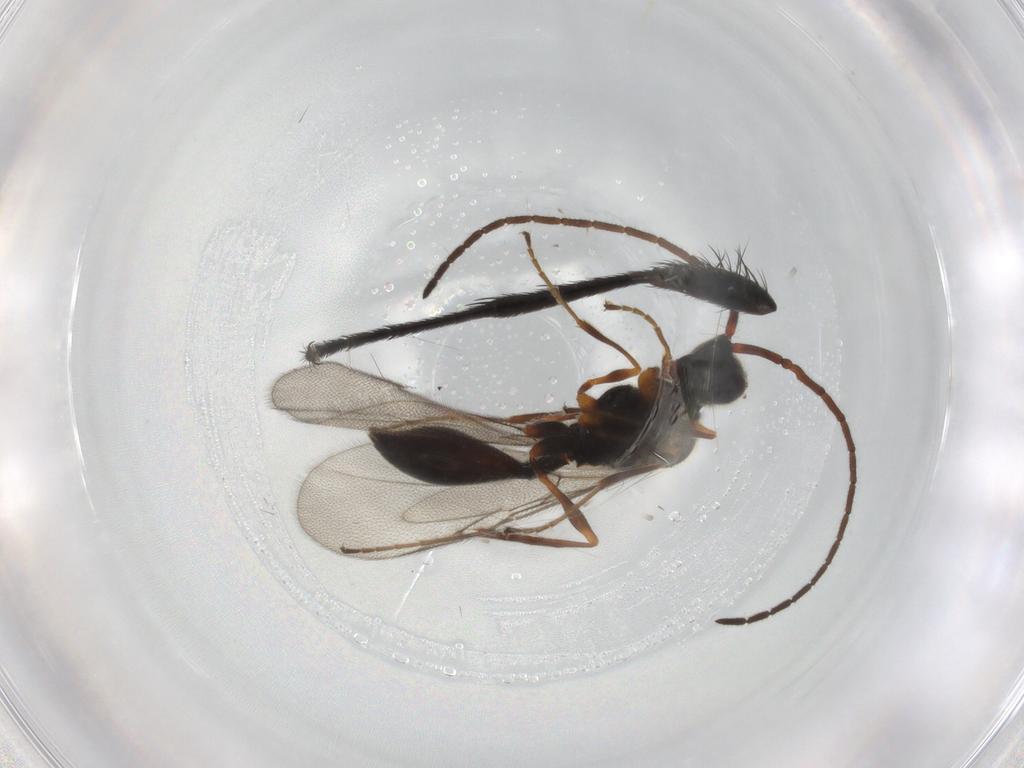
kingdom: Animalia
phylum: Arthropoda
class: Insecta
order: Hymenoptera
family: Diapriidae
